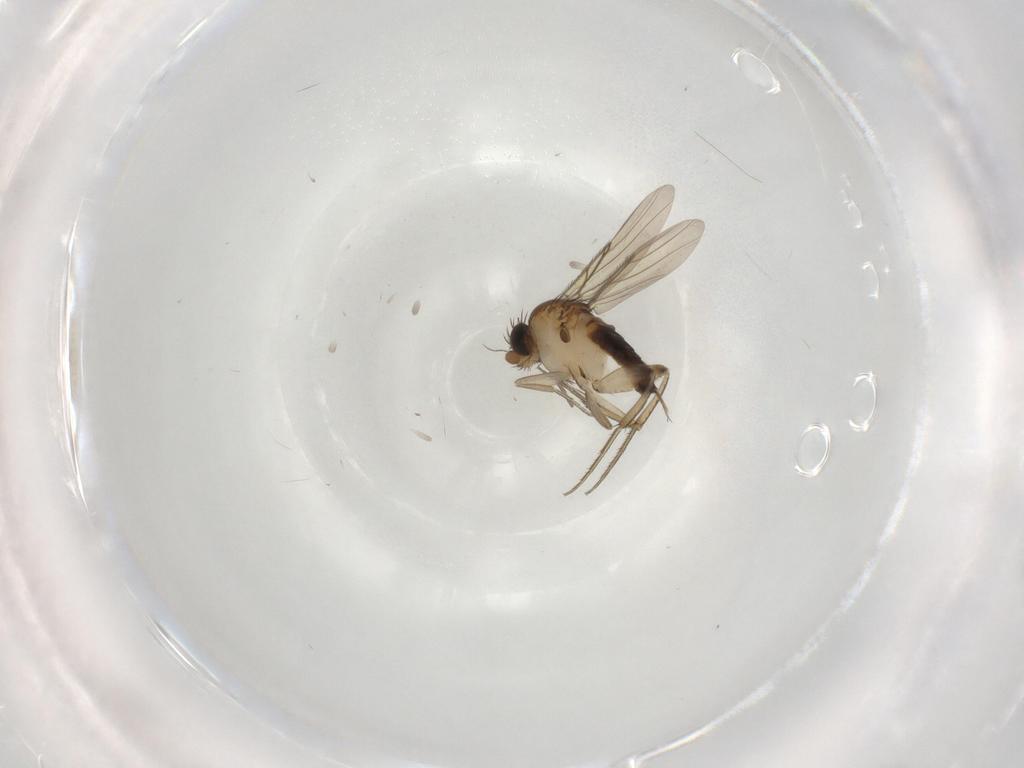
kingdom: Animalia
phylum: Arthropoda
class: Insecta
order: Diptera
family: Phoridae
